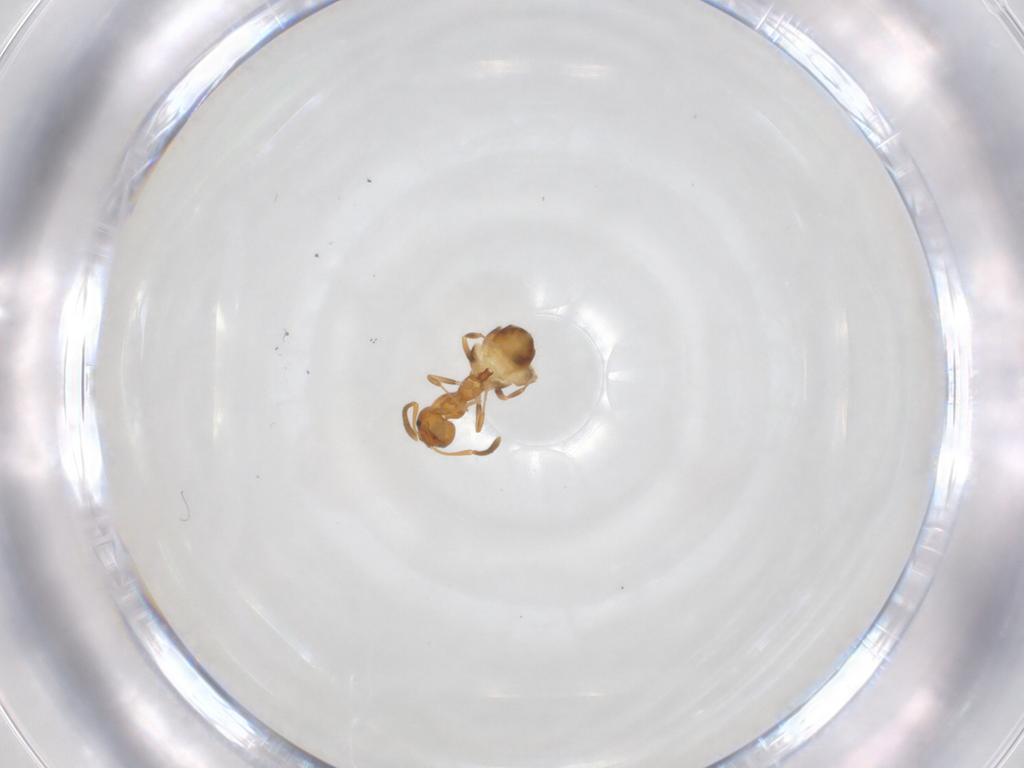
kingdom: Animalia
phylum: Arthropoda
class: Insecta
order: Hymenoptera
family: Formicidae
